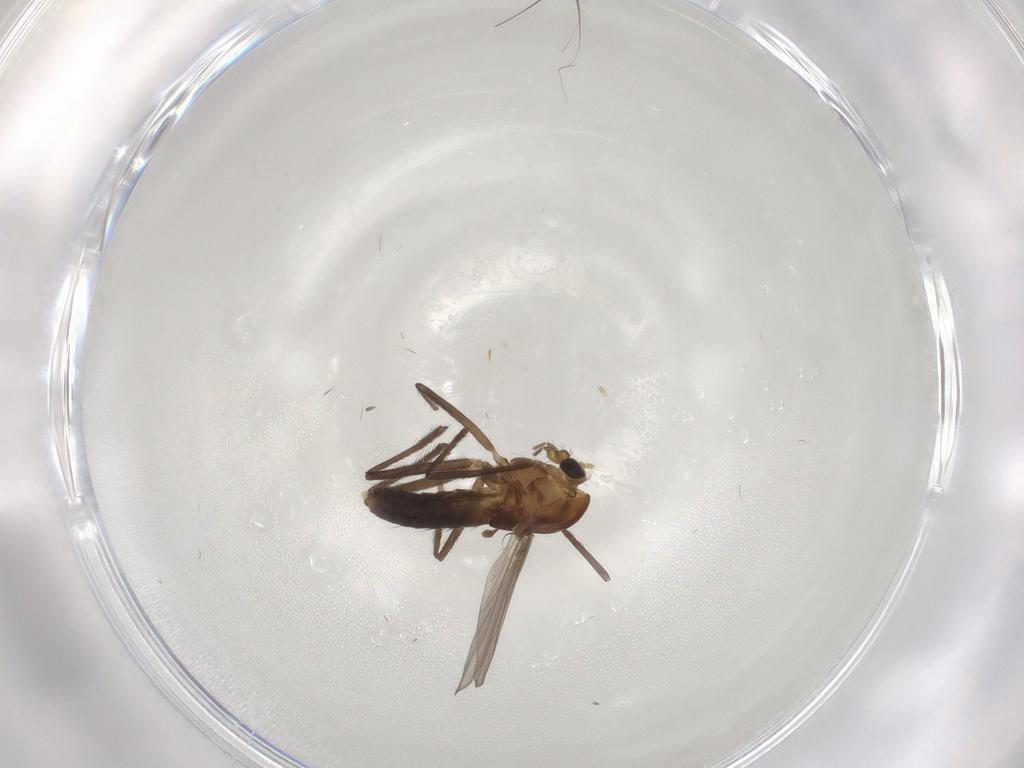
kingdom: Animalia
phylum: Arthropoda
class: Insecta
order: Diptera
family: Chironomidae
